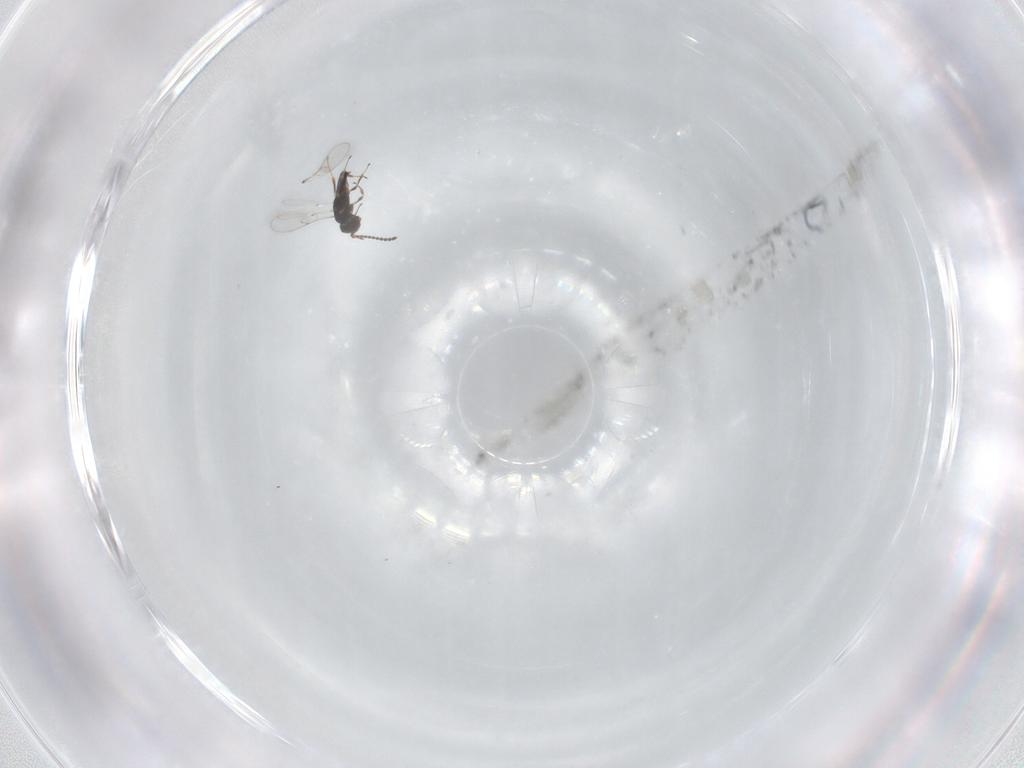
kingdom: Animalia
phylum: Arthropoda
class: Insecta
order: Hymenoptera
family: Scelionidae
